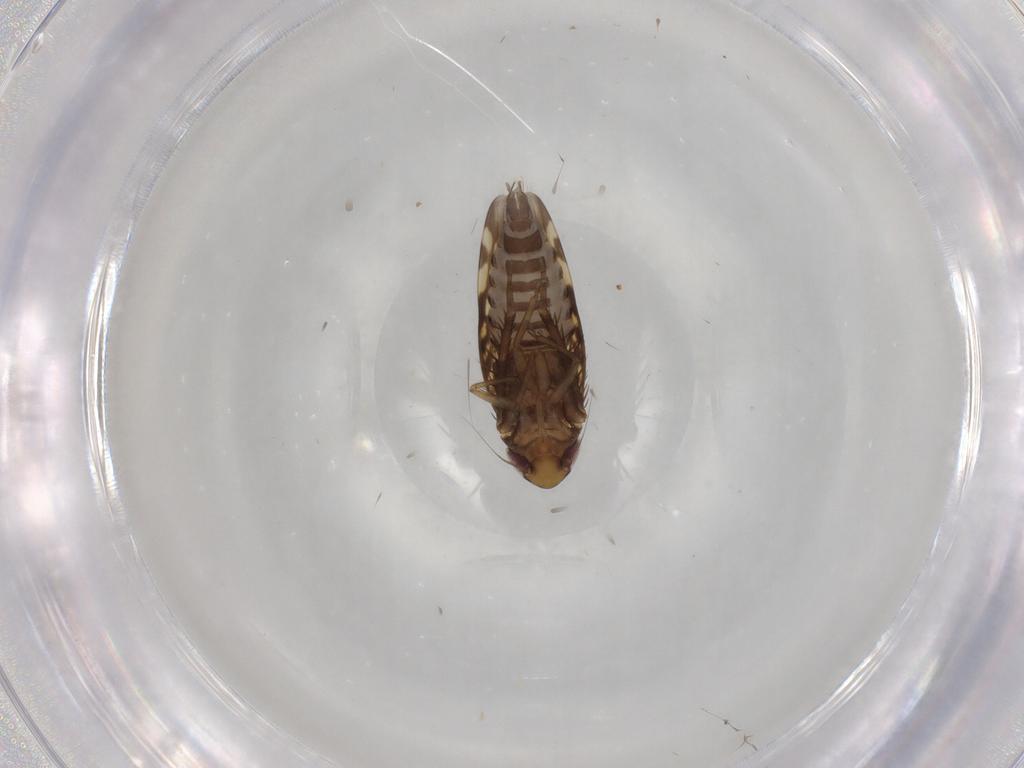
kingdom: Animalia
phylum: Arthropoda
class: Insecta
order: Hemiptera
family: Cicadellidae
